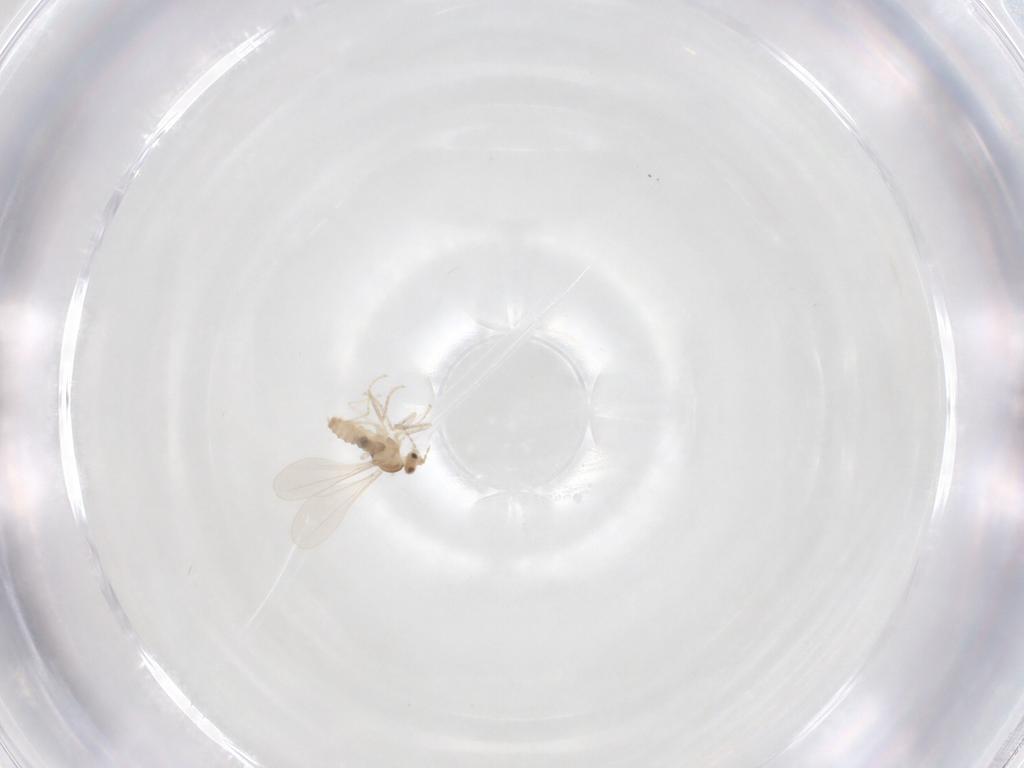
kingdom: Animalia
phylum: Arthropoda
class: Insecta
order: Diptera
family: Cecidomyiidae
